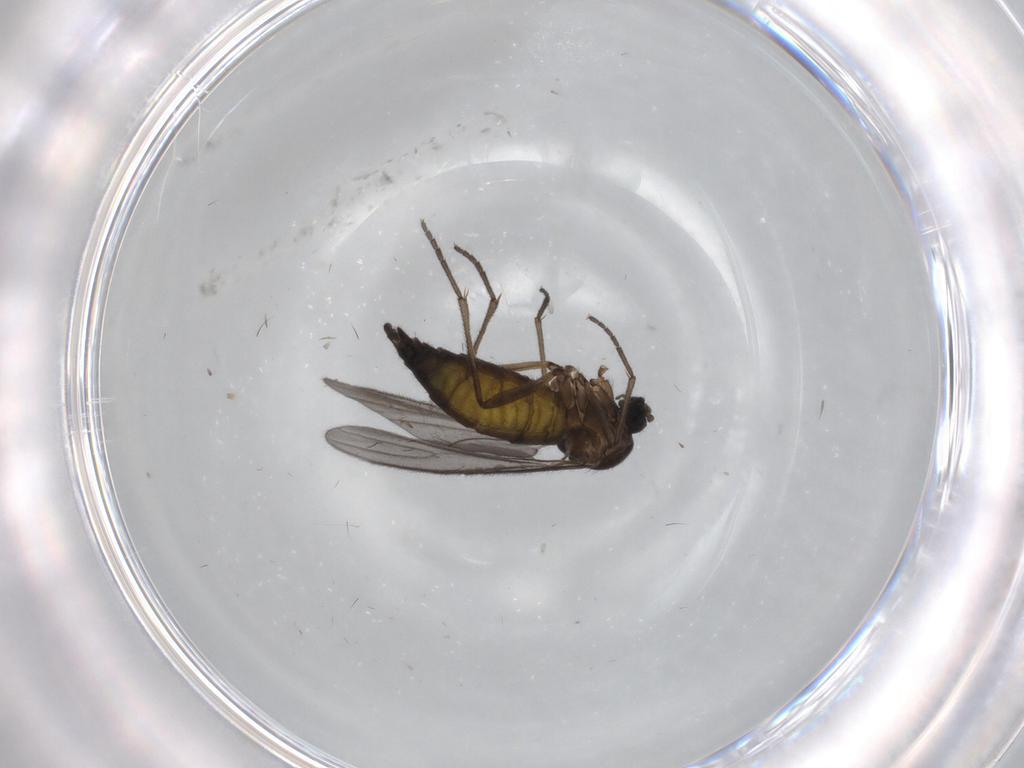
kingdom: Animalia
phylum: Arthropoda
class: Insecta
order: Diptera
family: Sciaridae
